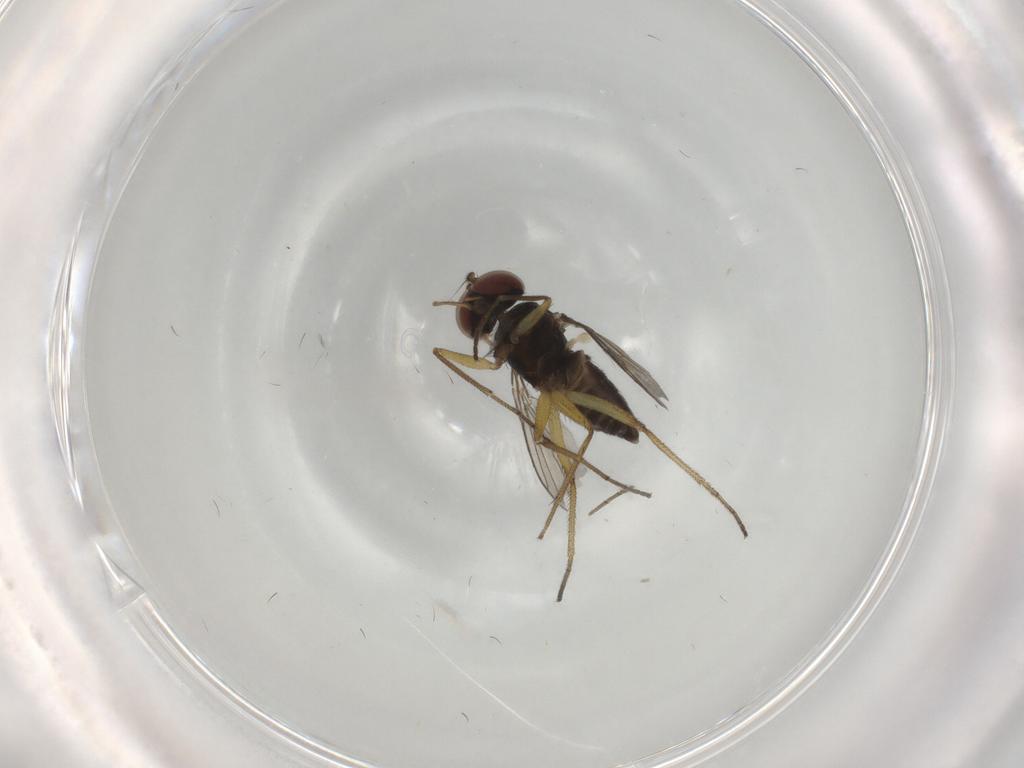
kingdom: Animalia
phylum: Arthropoda
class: Insecta
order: Diptera
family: Dolichopodidae
